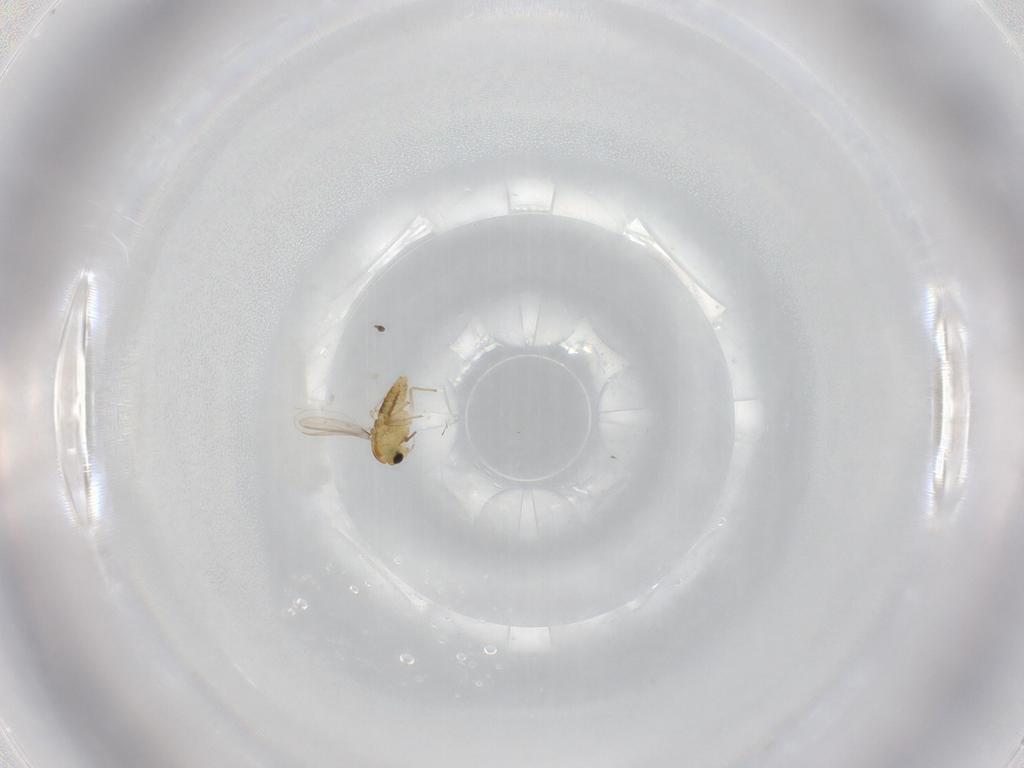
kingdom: Animalia
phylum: Arthropoda
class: Insecta
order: Diptera
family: Chironomidae
